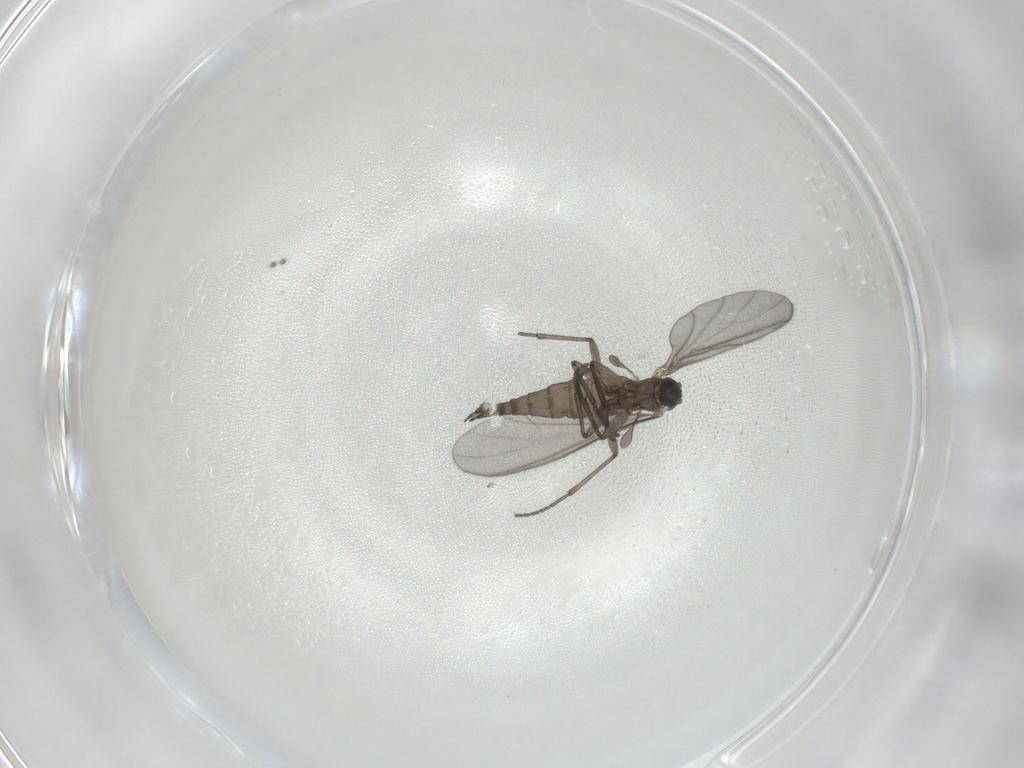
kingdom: Animalia
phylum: Arthropoda
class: Insecta
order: Diptera
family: Sciaridae
